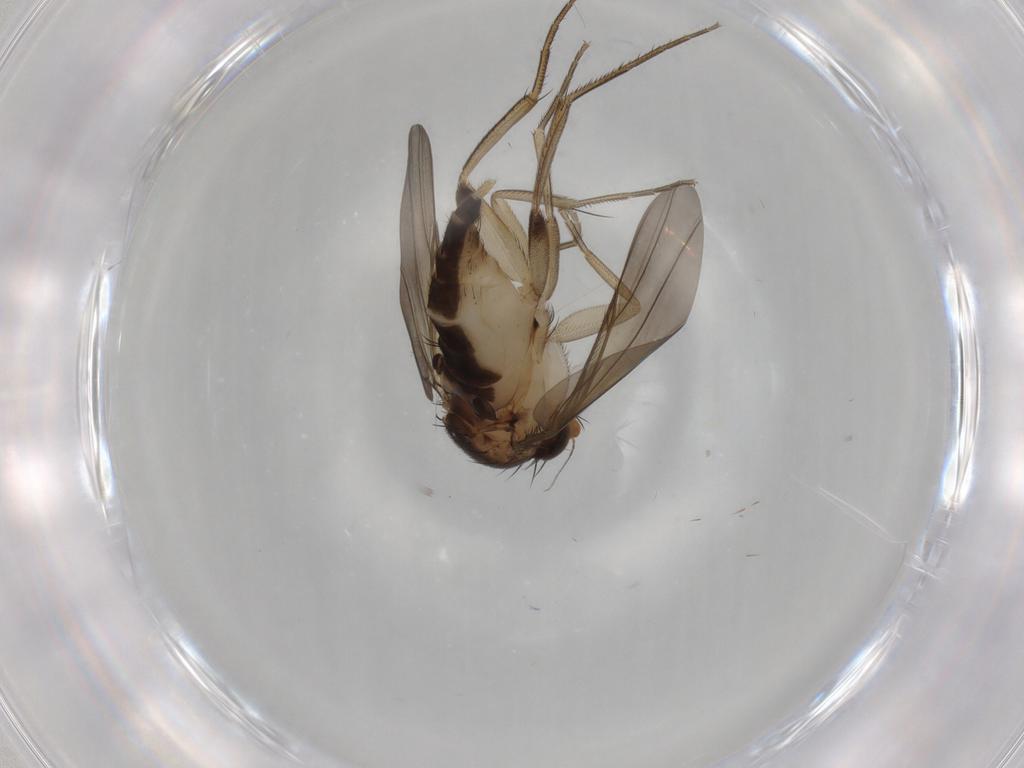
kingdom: Animalia
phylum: Arthropoda
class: Insecta
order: Diptera
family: Phoridae
